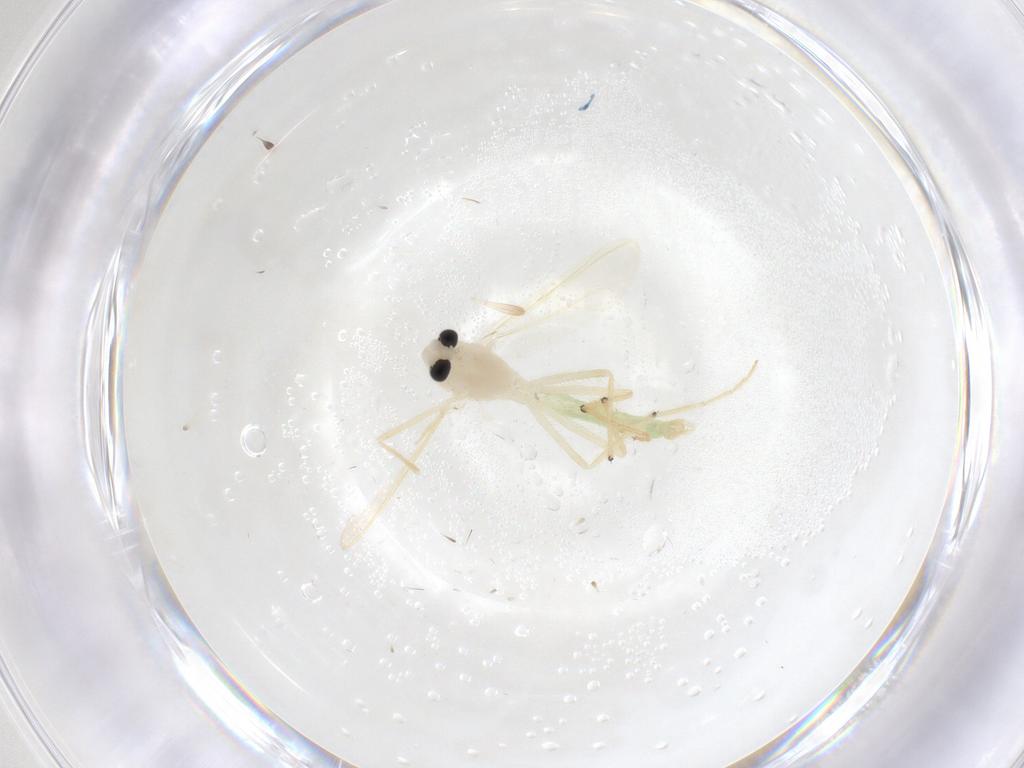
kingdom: Animalia
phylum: Arthropoda
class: Insecta
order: Diptera
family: Chironomidae
